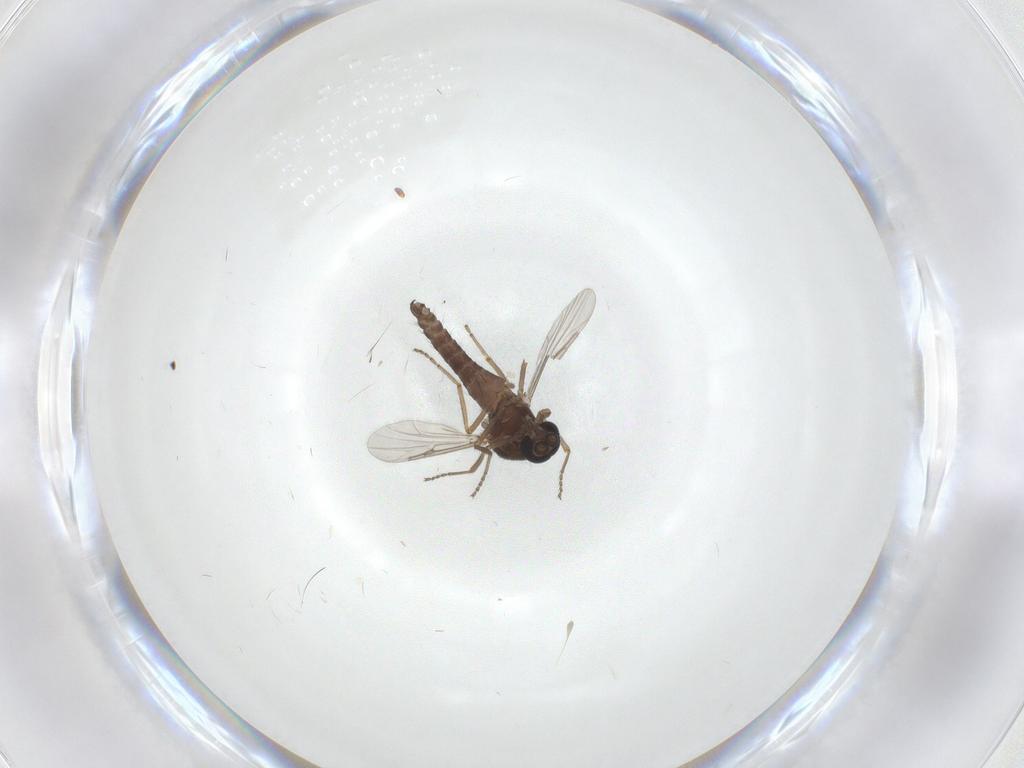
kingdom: Animalia
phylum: Arthropoda
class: Insecta
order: Diptera
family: Ceratopogonidae
